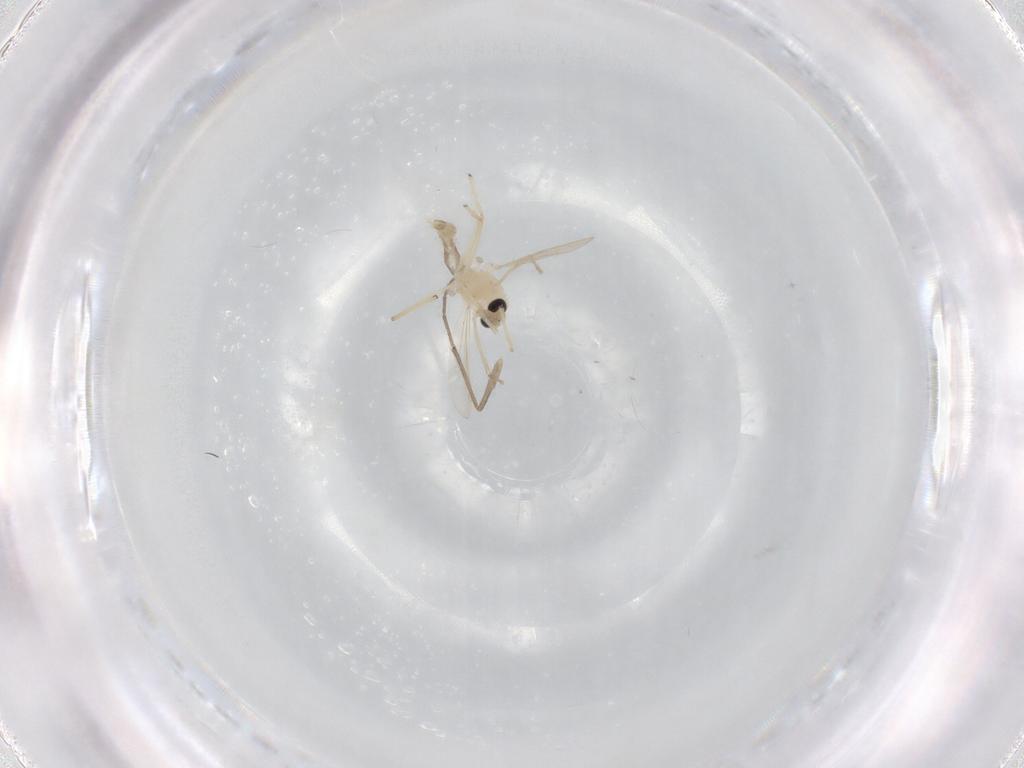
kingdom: Animalia
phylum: Arthropoda
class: Insecta
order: Diptera
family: Chironomidae
